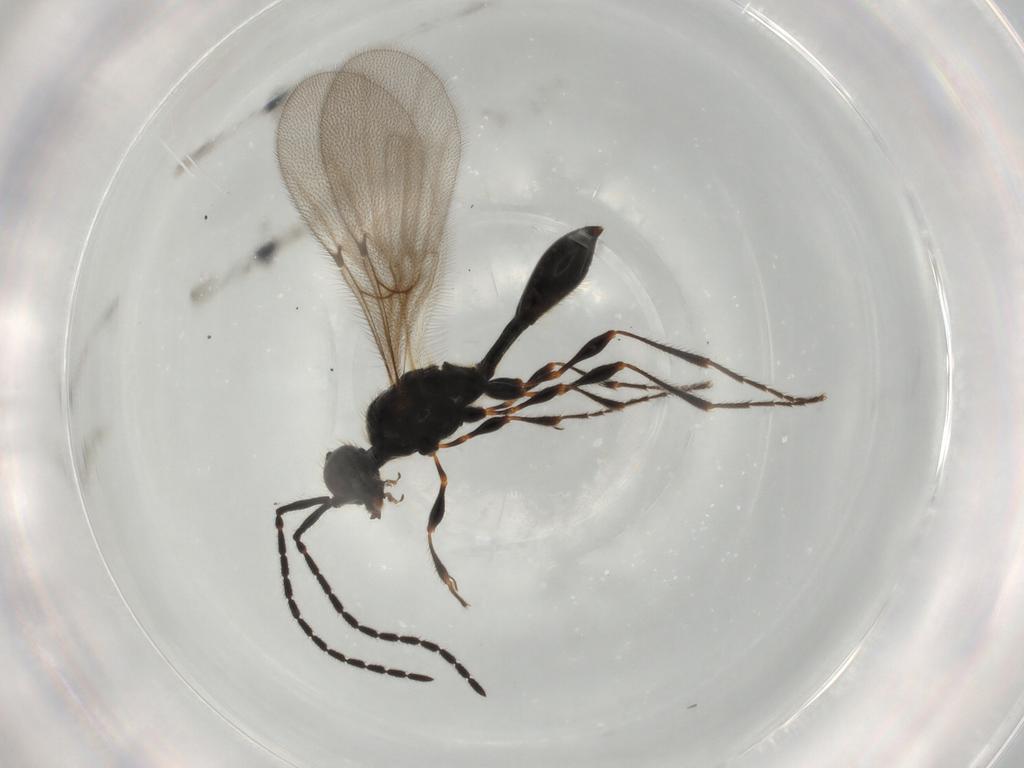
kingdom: Animalia
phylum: Arthropoda
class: Insecta
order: Hymenoptera
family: Diapriidae
